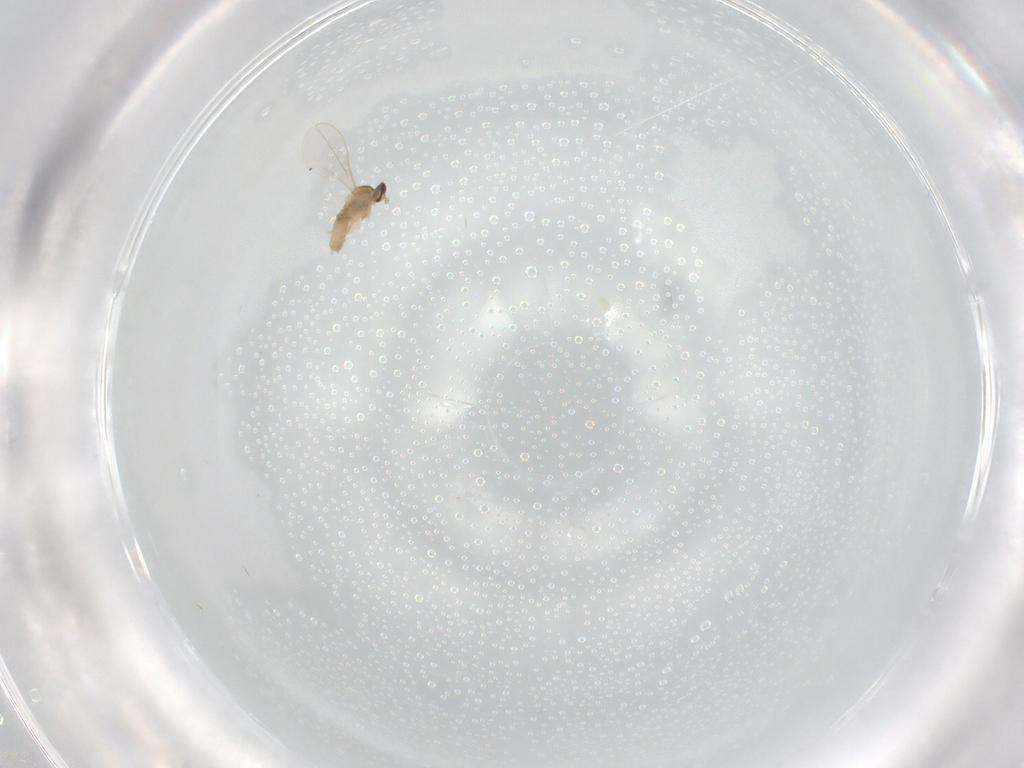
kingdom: Animalia
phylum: Arthropoda
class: Insecta
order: Diptera
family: Cecidomyiidae
